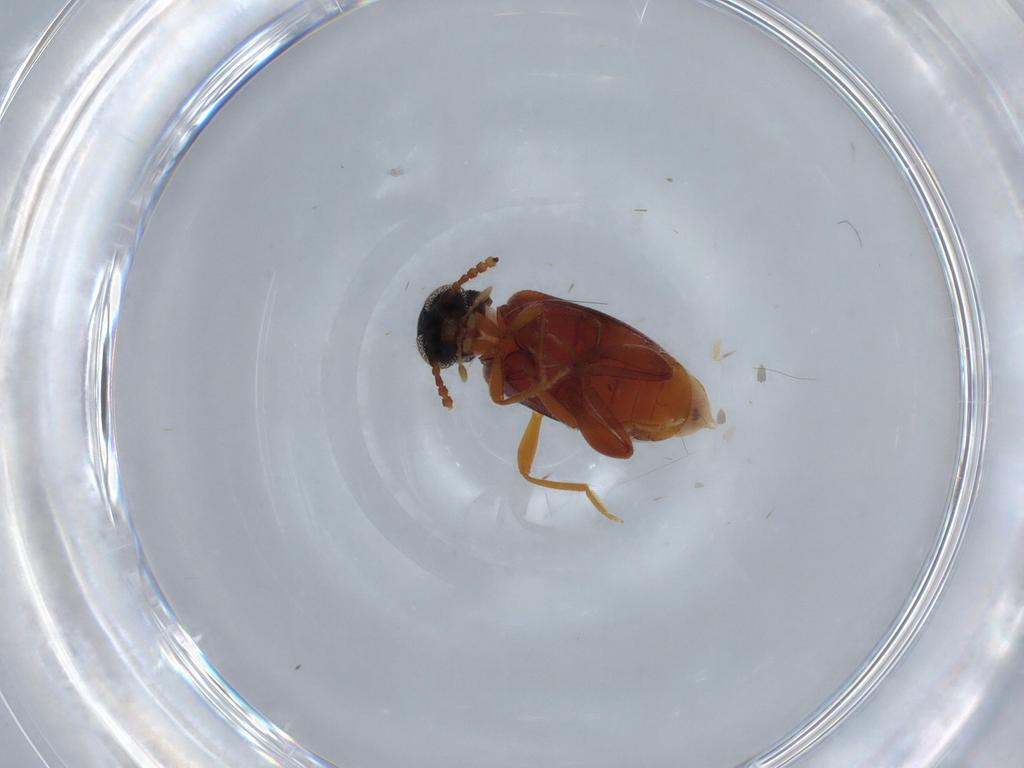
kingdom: Animalia
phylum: Arthropoda
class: Insecta
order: Coleoptera
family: Aderidae
